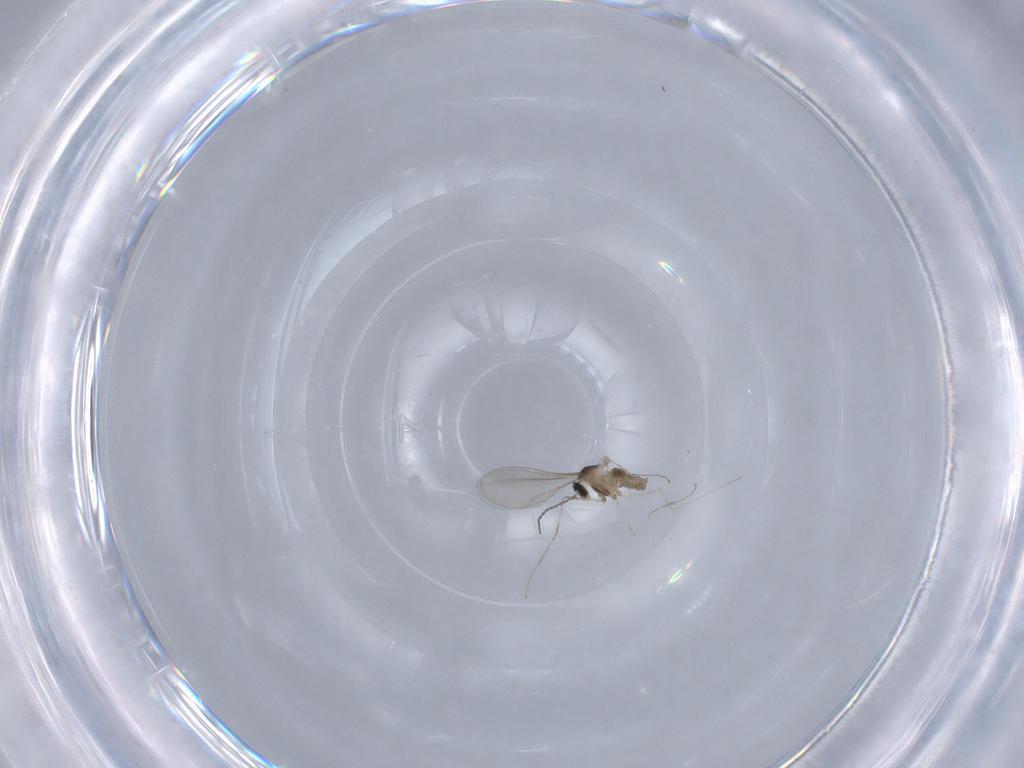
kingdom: Animalia
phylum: Arthropoda
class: Insecta
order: Diptera
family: Cecidomyiidae
